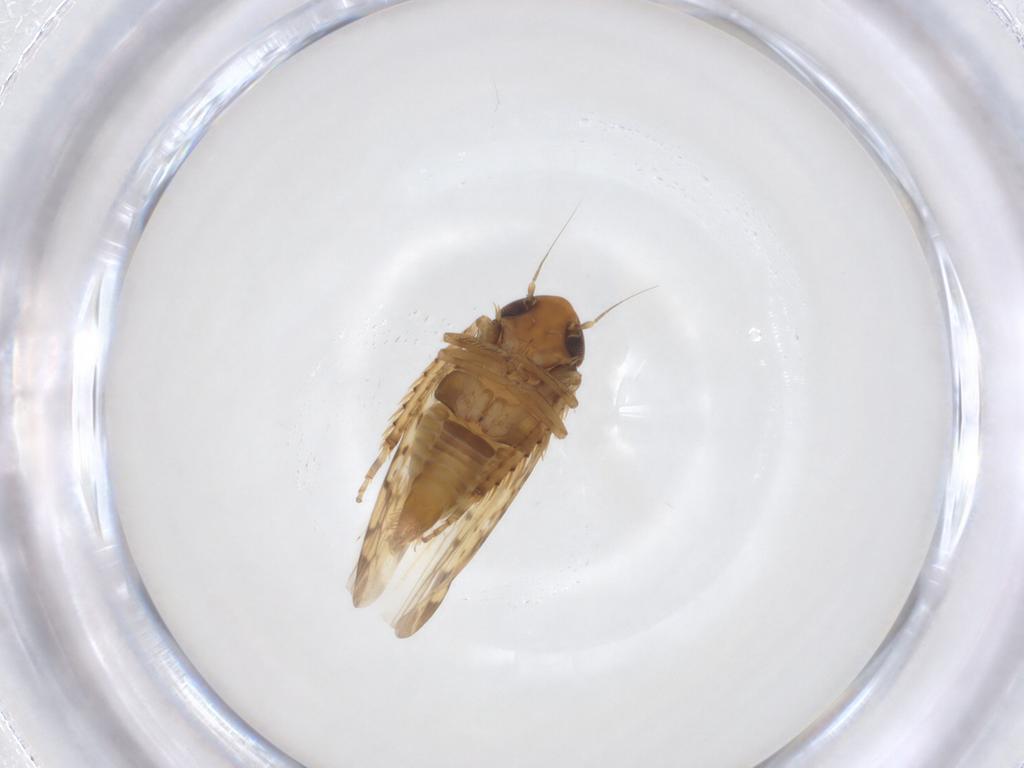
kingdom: Animalia
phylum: Arthropoda
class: Insecta
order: Hemiptera
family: Cicadellidae
